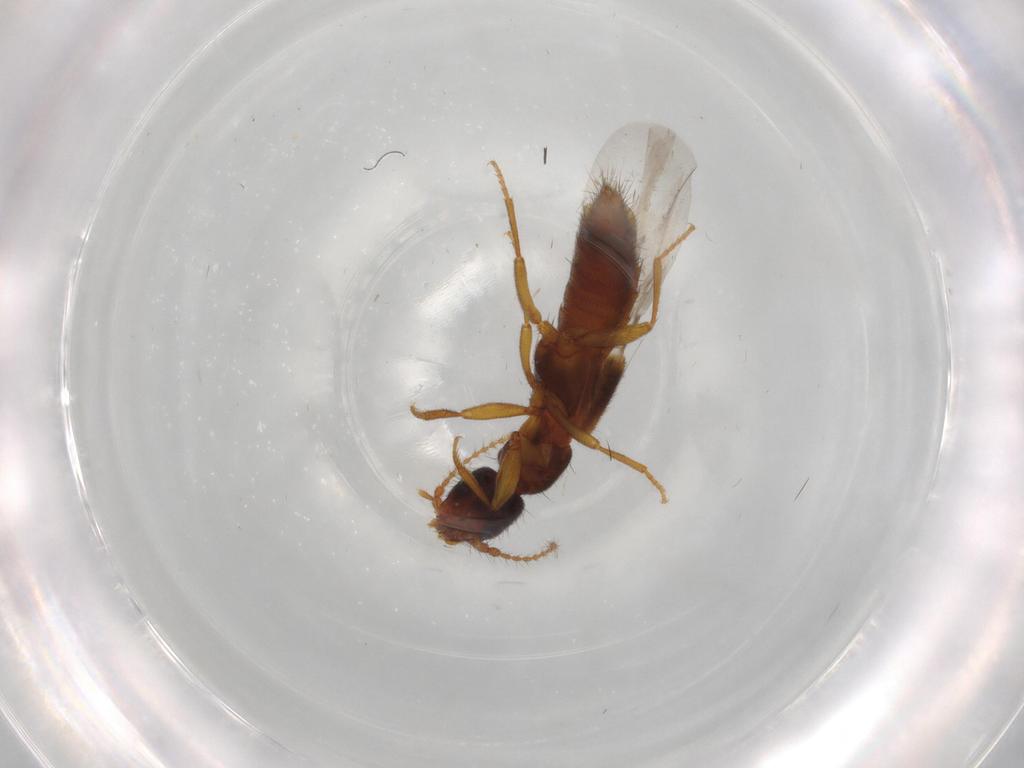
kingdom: Animalia
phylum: Arthropoda
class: Insecta
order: Coleoptera
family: Staphylinidae
